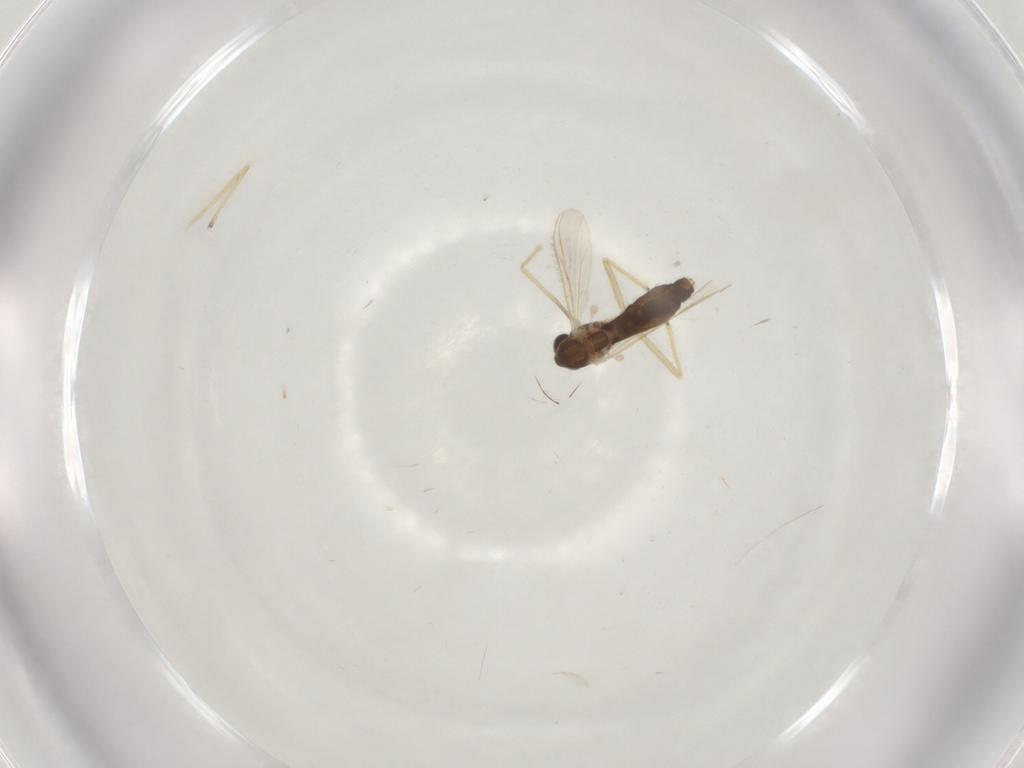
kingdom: Animalia
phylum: Arthropoda
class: Insecta
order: Diptera
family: Chironomidae
